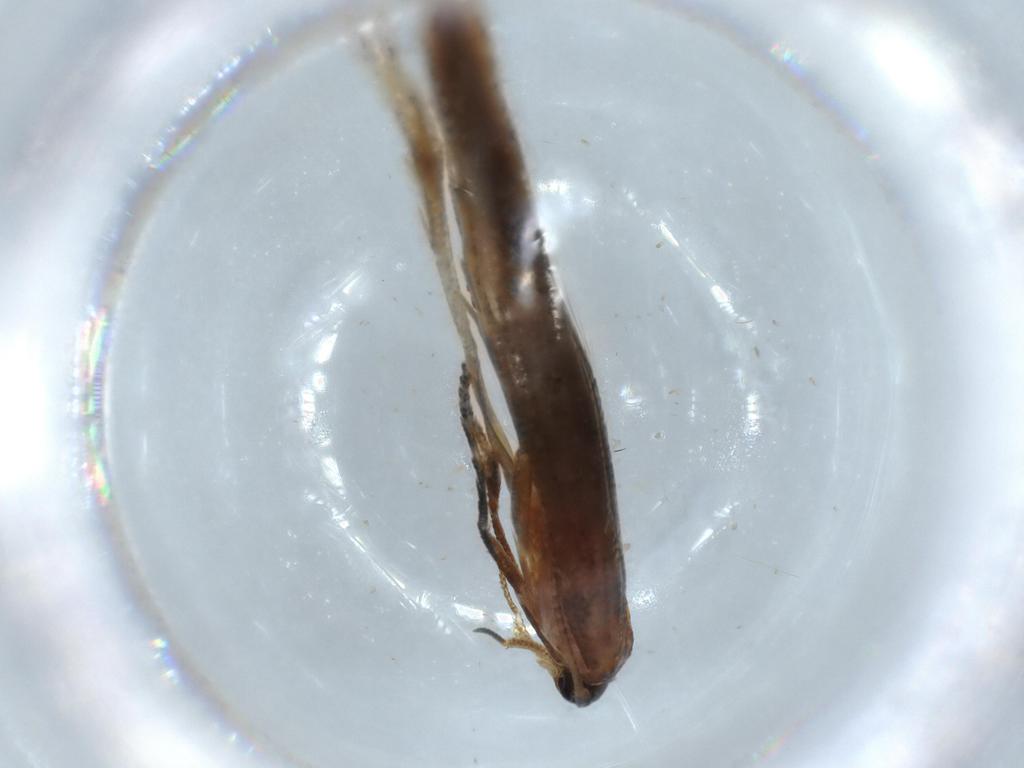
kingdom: Animalia
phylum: Arthropoda
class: Insecta
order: Lepidoptera
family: Tineidae
